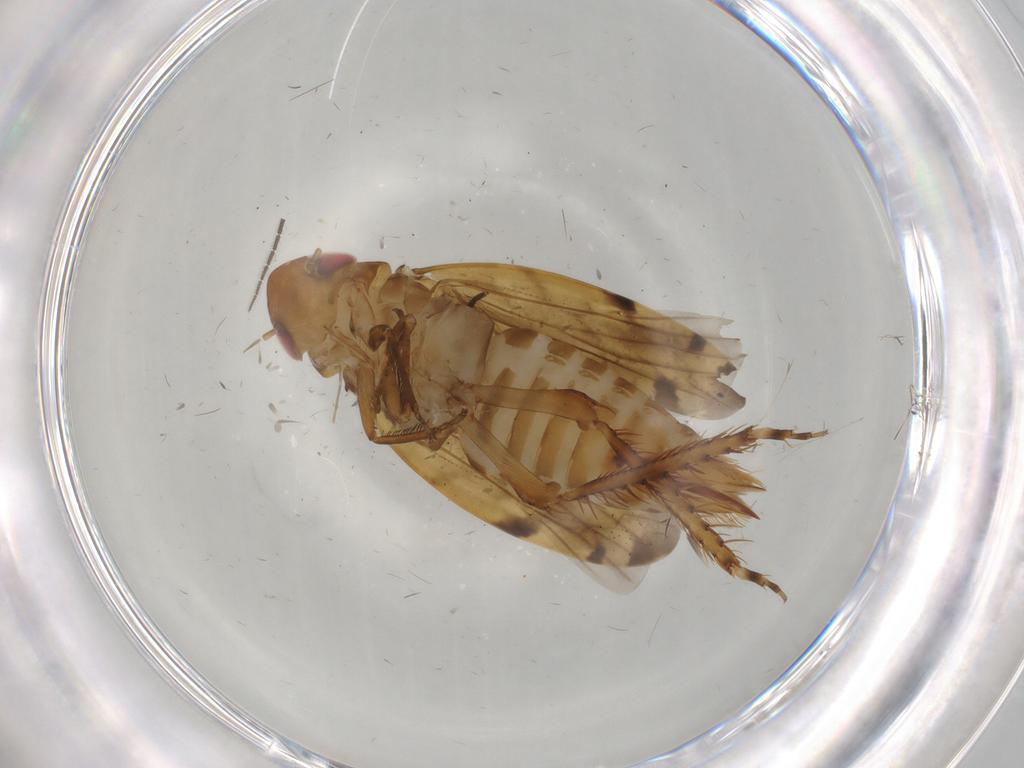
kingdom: Animalia
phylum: Arthropoda
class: Insecta
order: Diptera
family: Sciaridae
